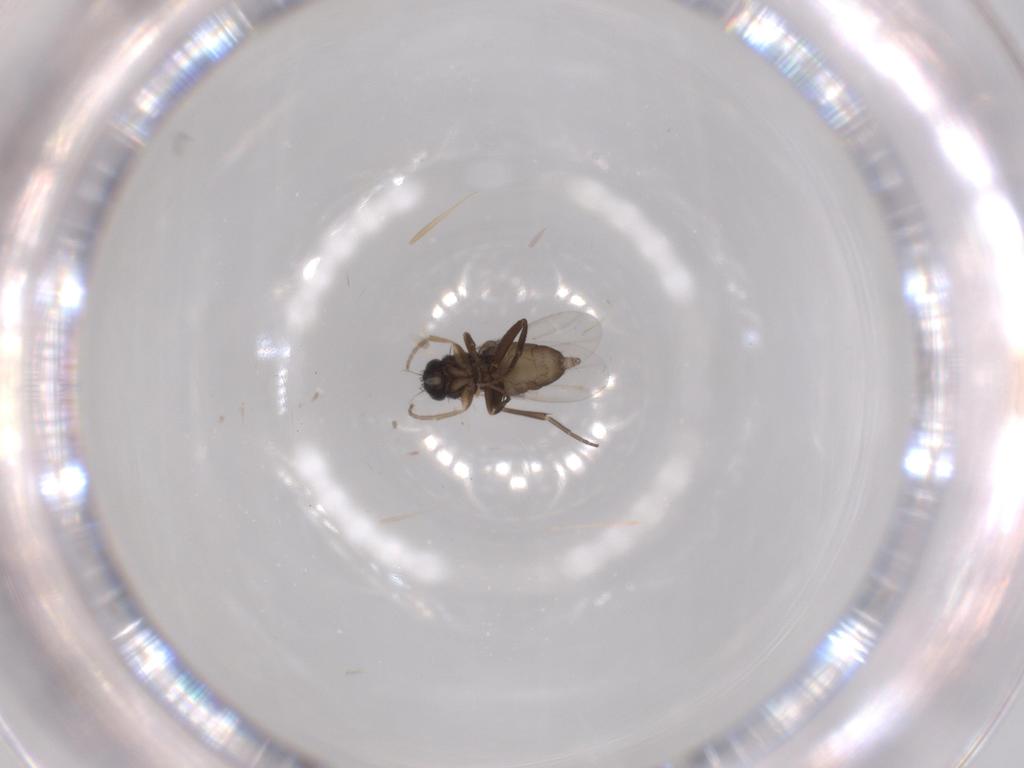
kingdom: Animalia
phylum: Arthropoda
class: Insecta
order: Diptera
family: Phoridae
